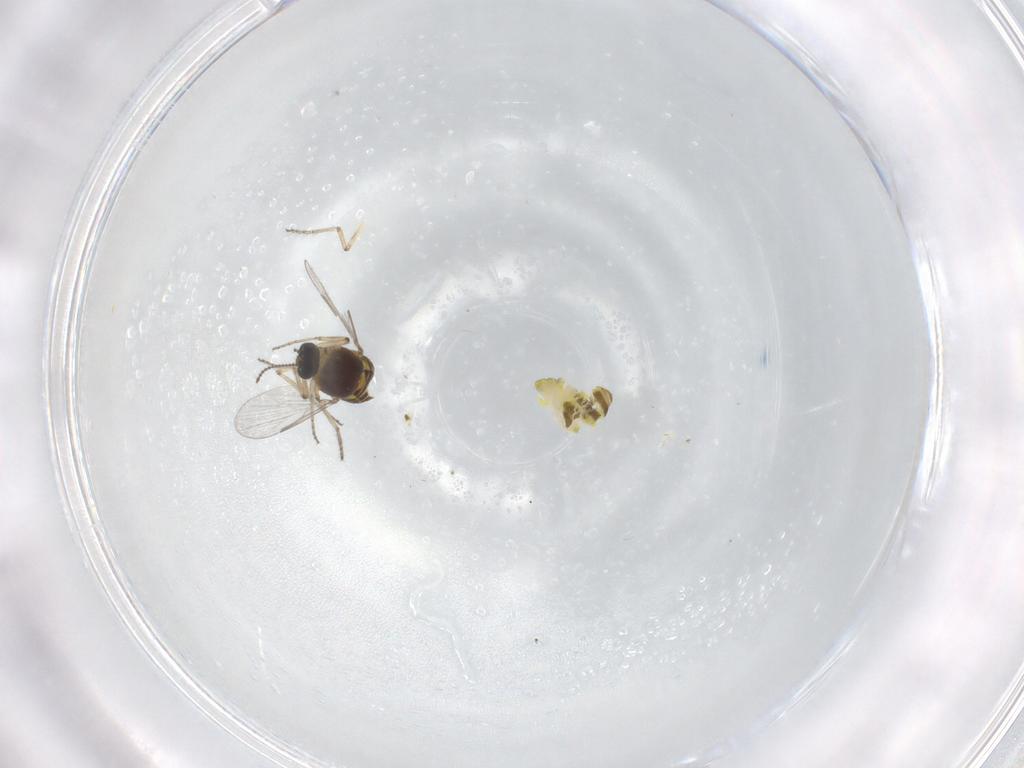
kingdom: Animalia
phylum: Arthropoda
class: Insecta
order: Diptera
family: Ceratopogonidae
